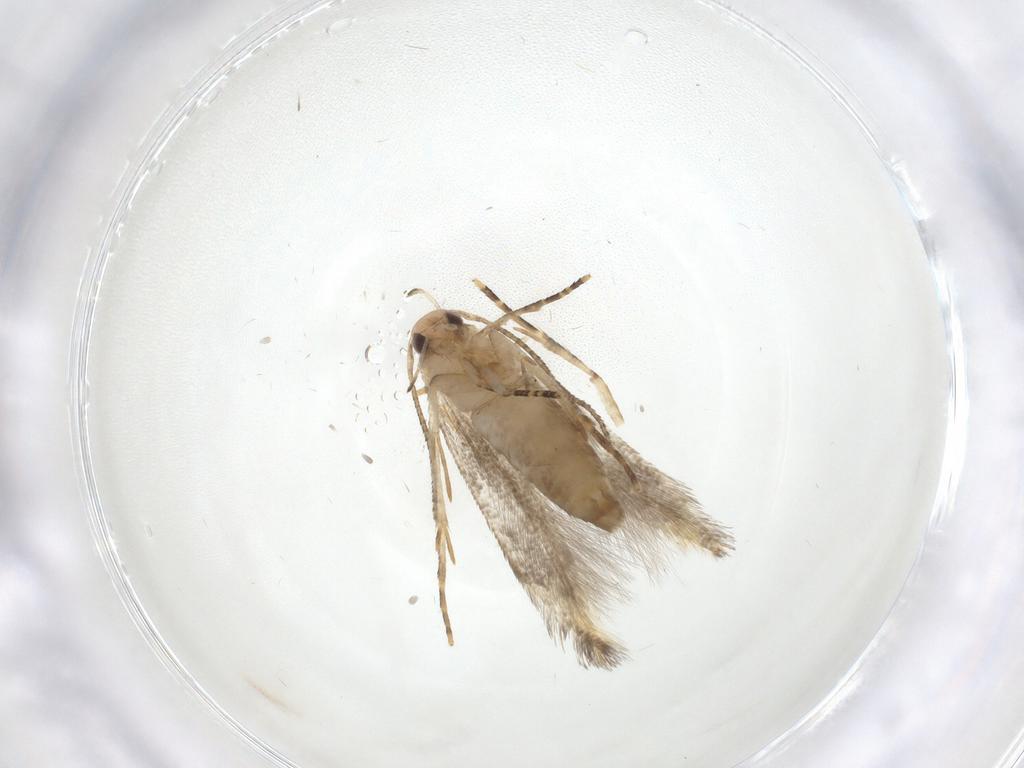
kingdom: Animalia
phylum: Arthropoda
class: Insecta
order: Lepidoptera
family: Cosmopterigidae
